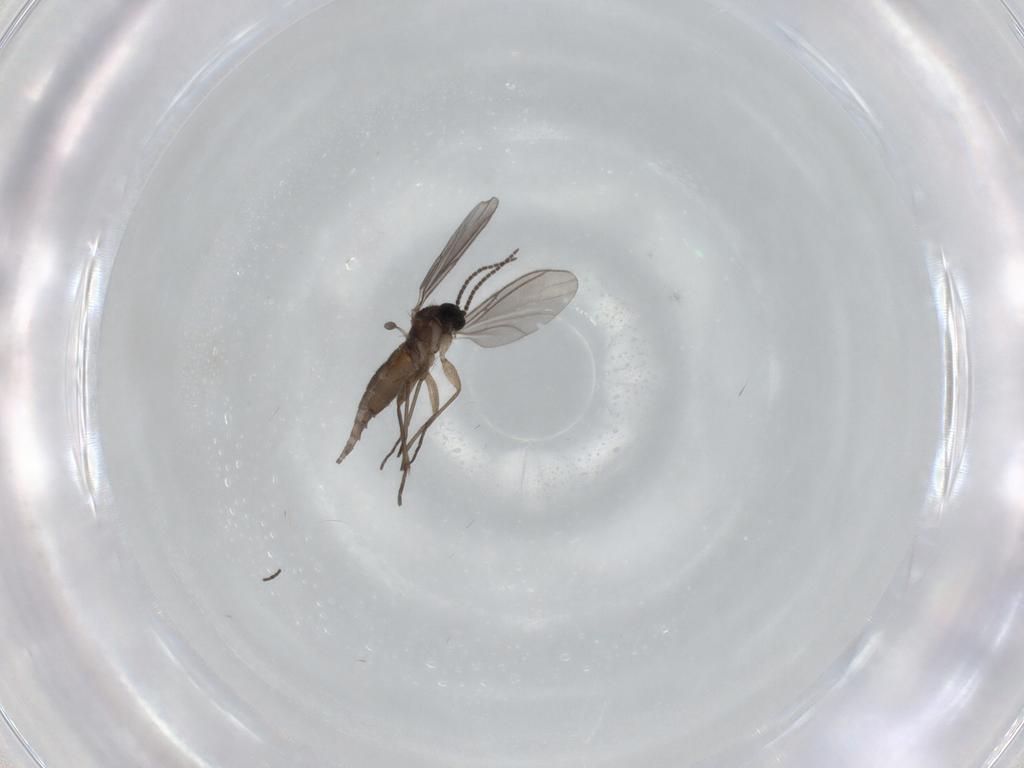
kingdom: Animalia
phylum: Arthropoda
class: Insecta
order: Diptera
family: Sciaridae
